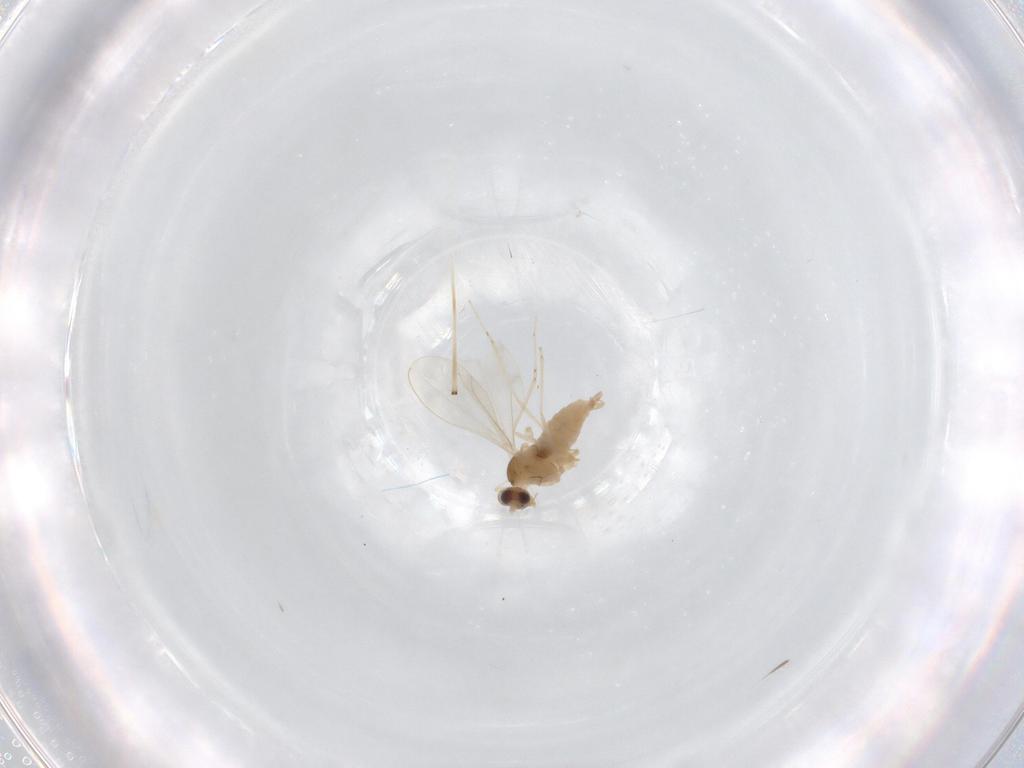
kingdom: Animalia
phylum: Arthropoda
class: Insecta
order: Diptera
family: Cecidomyiidae
